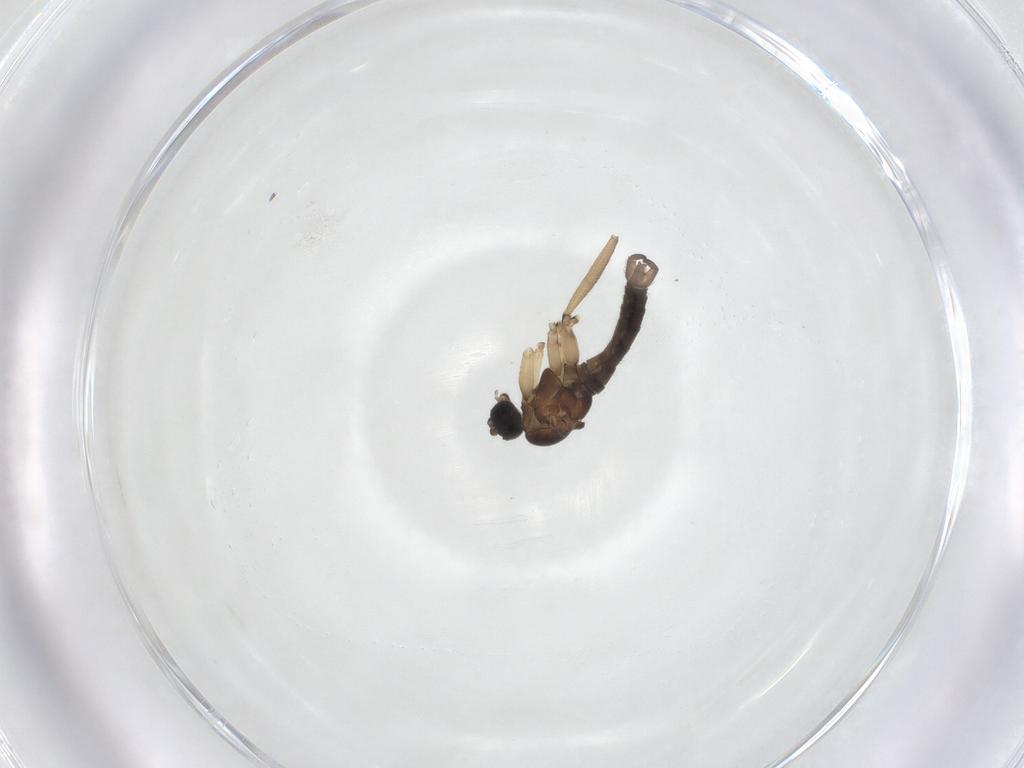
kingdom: Animalia
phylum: Arthropoda
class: Insecta
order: Diptera
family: Sciaridae
